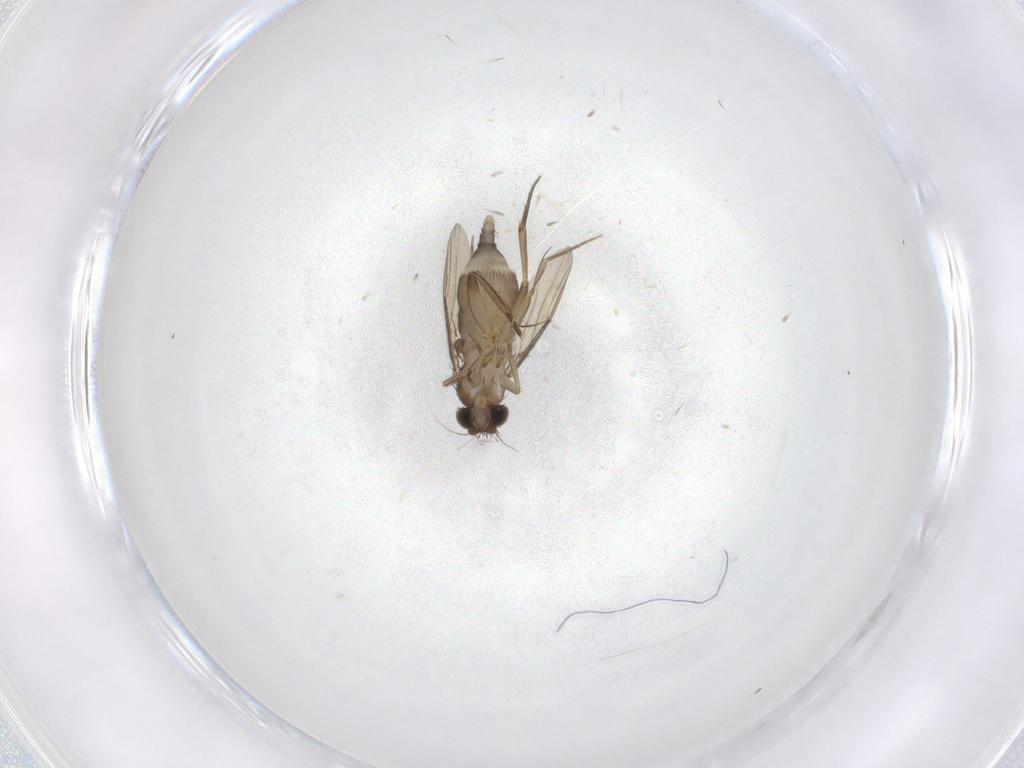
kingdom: Animalia
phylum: Arthropoda
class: Insecta
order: Diptera
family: Phoridae
